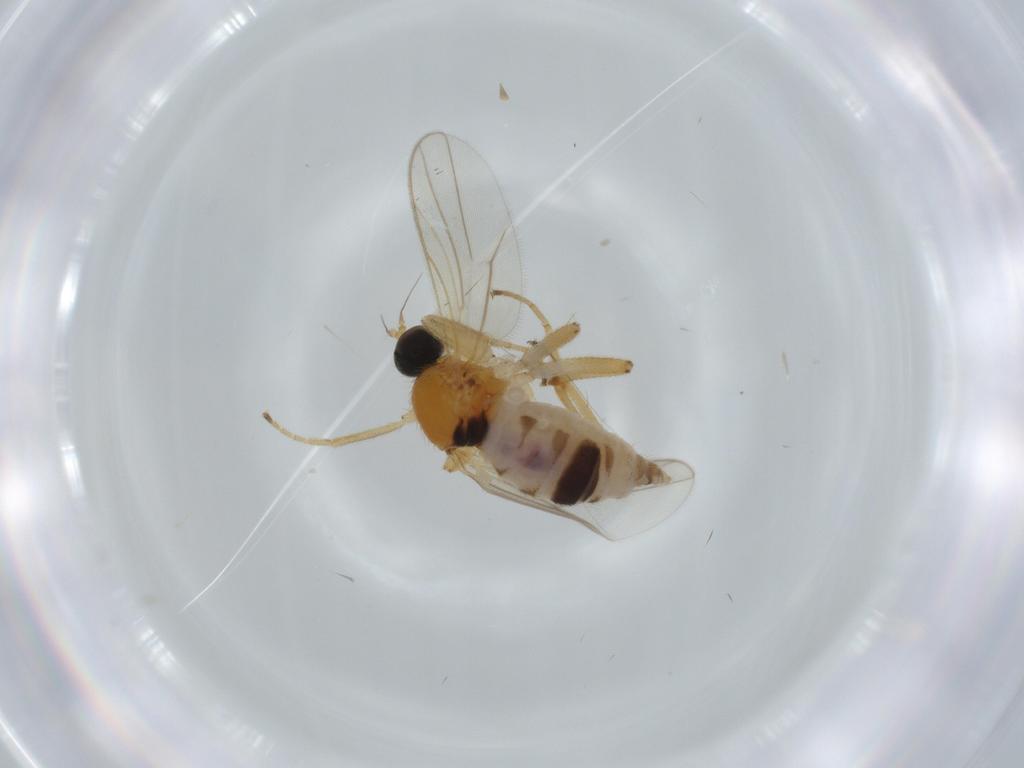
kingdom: Animalia
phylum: Arthropoda
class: Insecta
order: Diptera
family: Hybotidae
